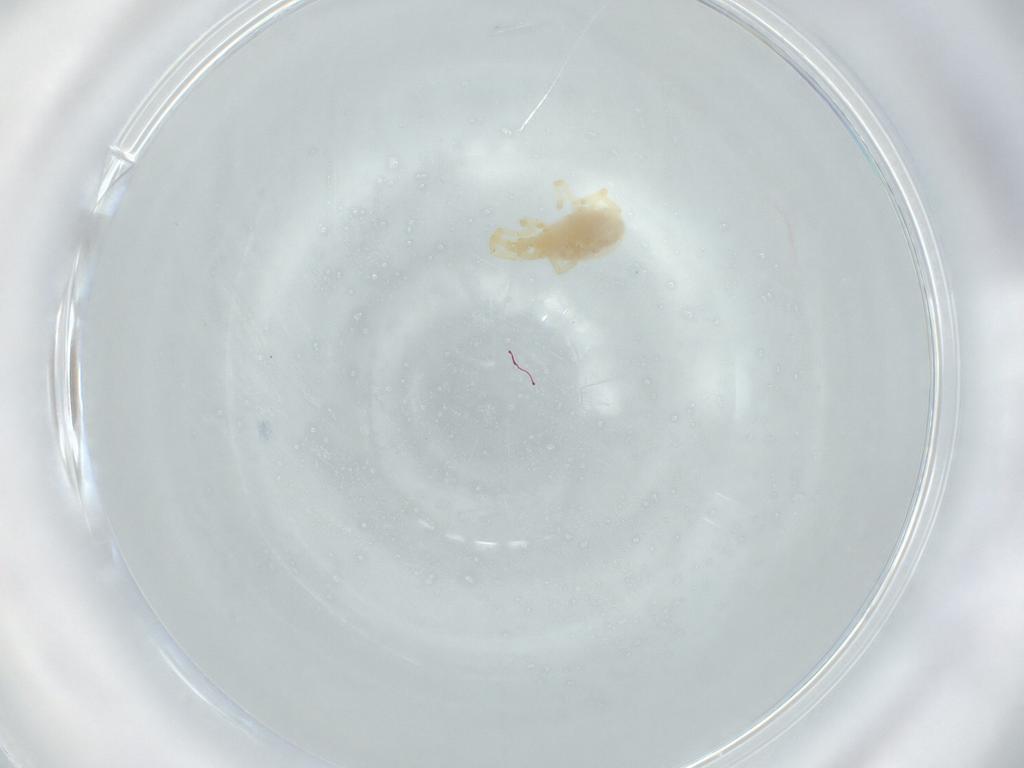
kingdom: Animalia
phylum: Arthropoda
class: Arachnida
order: Trombidiformes
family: Erythraeidae
